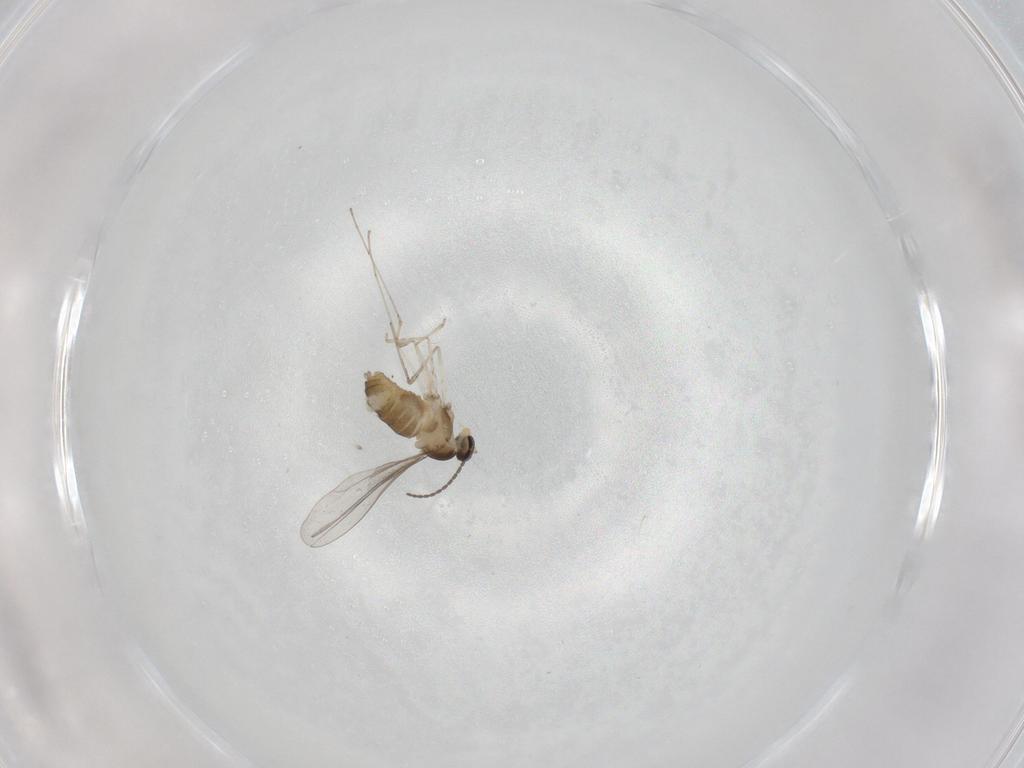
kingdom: Animalia
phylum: Arthropoda
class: Insecta
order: Diptera
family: Cecidomyiidae
